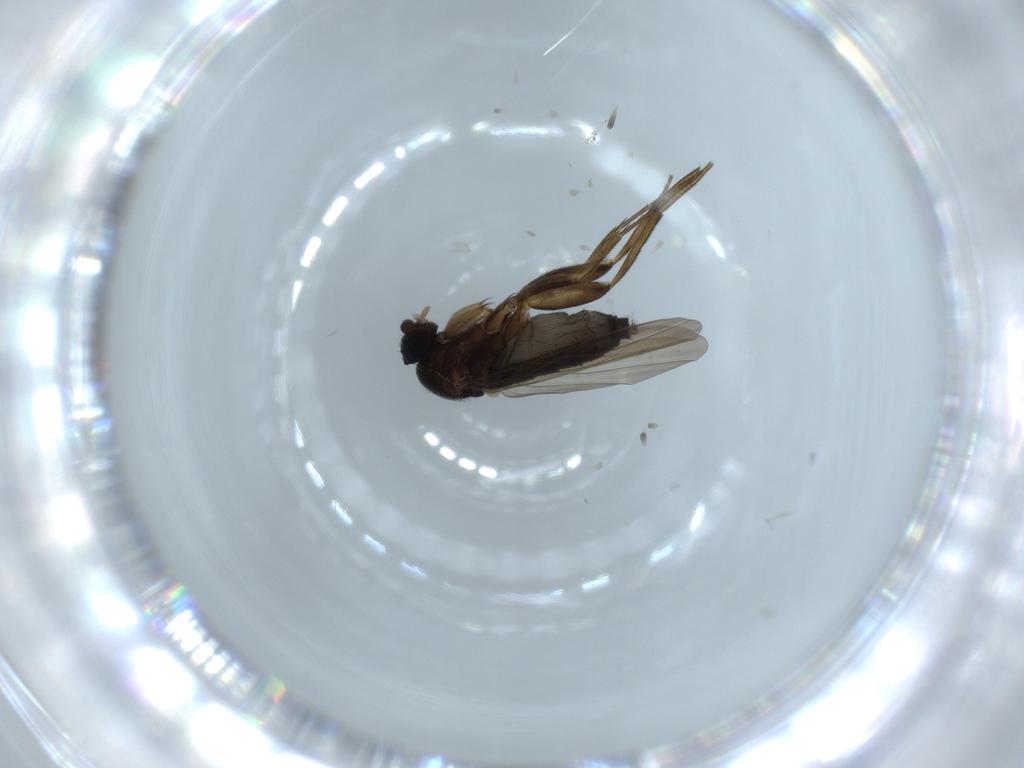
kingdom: Animalia
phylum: Arthropoda
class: Insecta
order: Diptera
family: Phoridae
